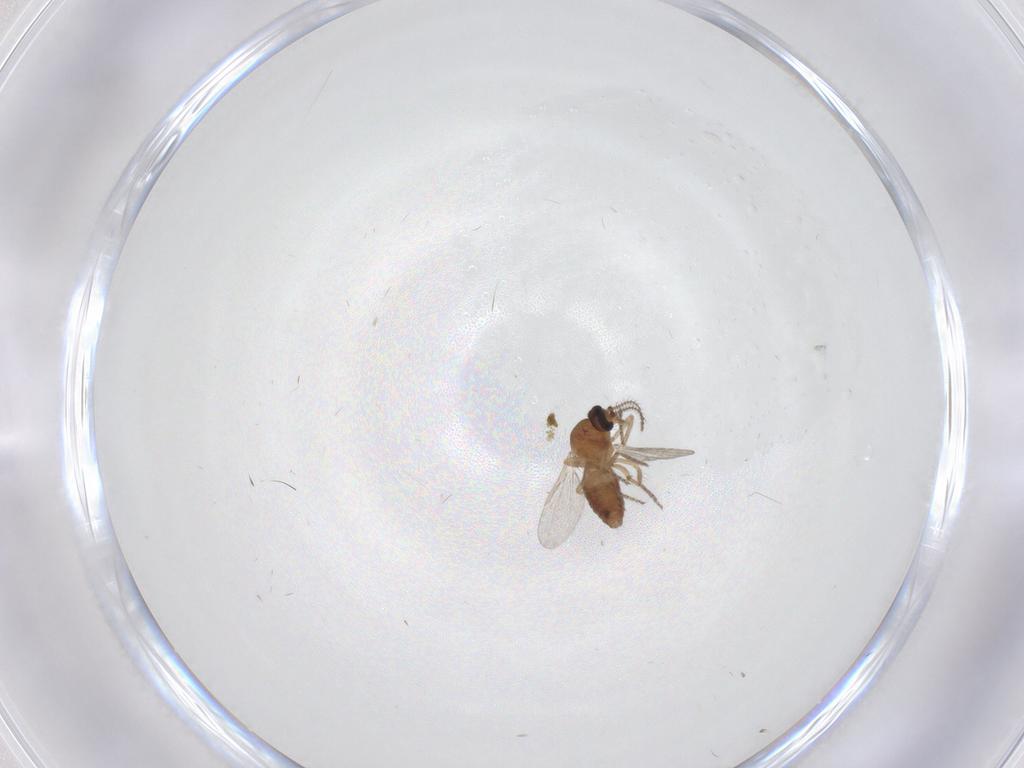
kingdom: Animalia
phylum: Arthropoda
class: Insecta
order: Diptera
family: Ceratopogonidae
